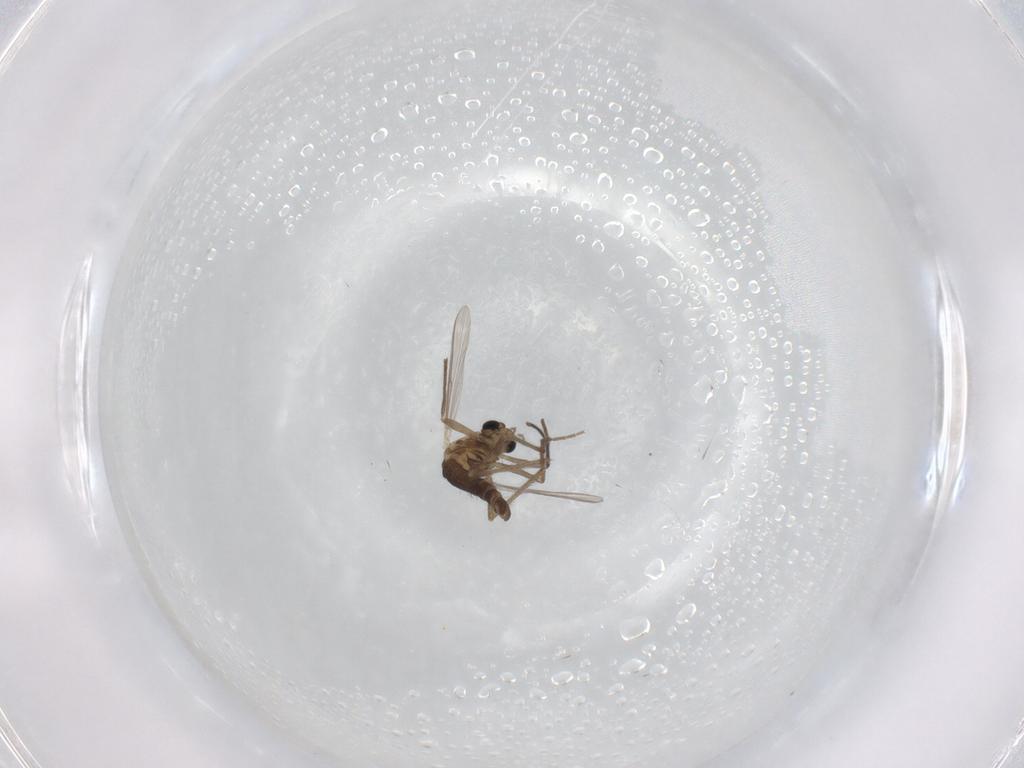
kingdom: Animalia
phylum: Arthropoda
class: Insecta
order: Diptera
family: Chironomidae
